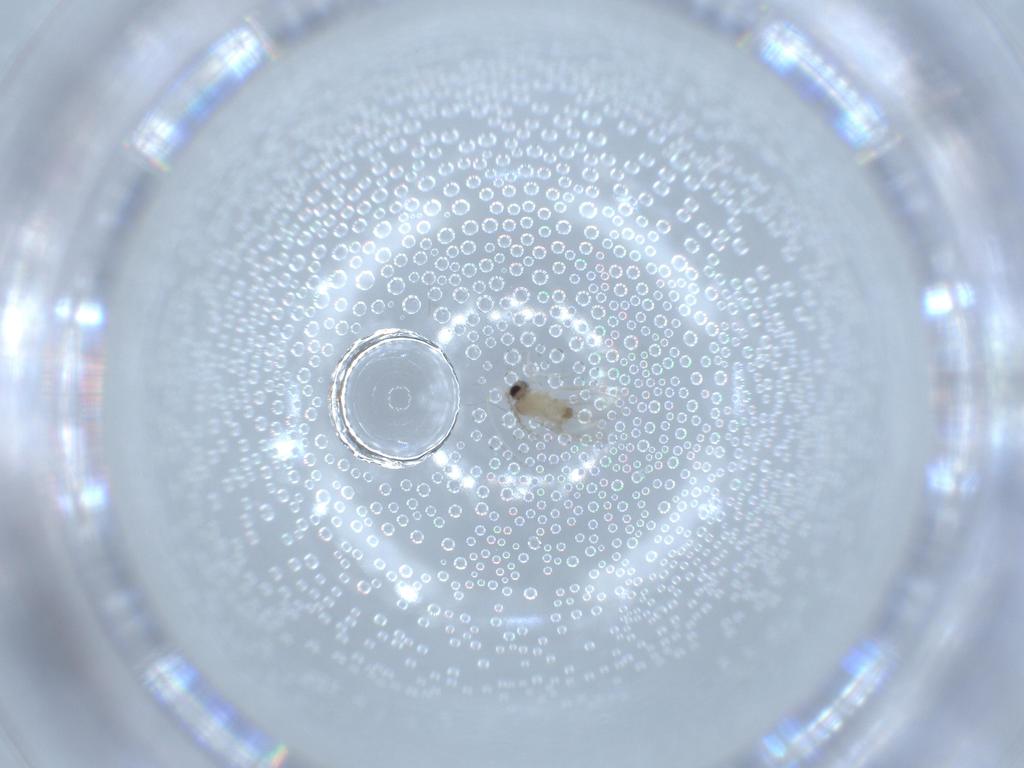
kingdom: Animalia
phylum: Arthropoda
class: Insecta
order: Diptera
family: Cecidomyiidae
